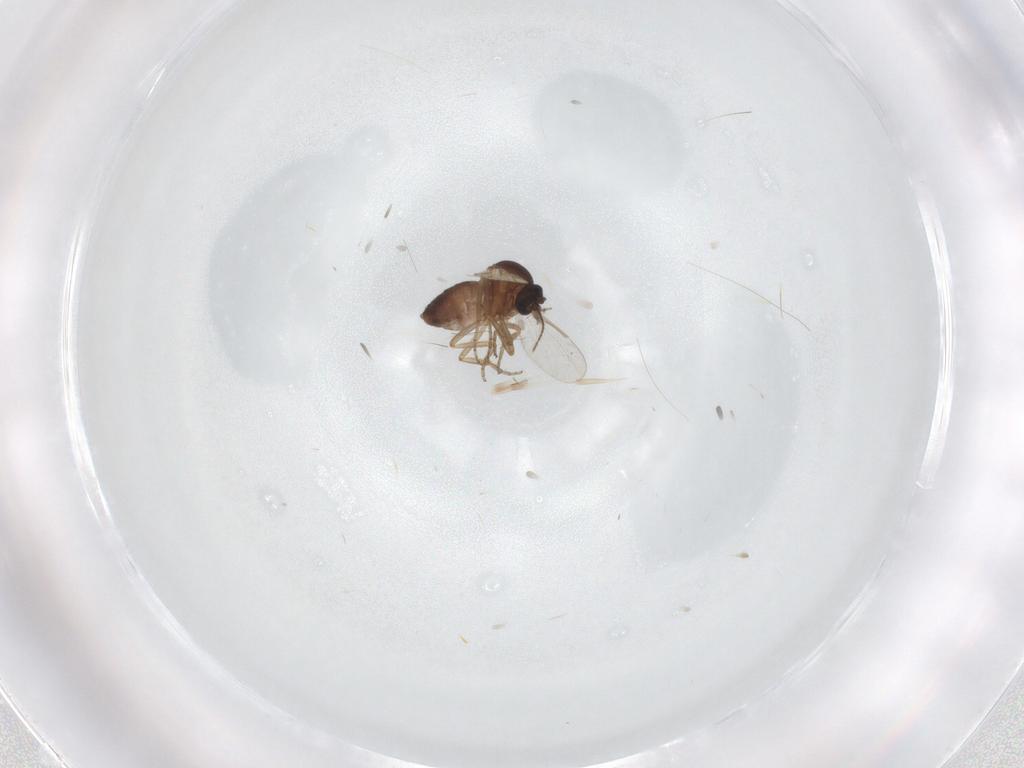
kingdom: Animalia
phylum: Arthropoda
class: Insecta
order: Diptera
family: Ceratopogonidae
